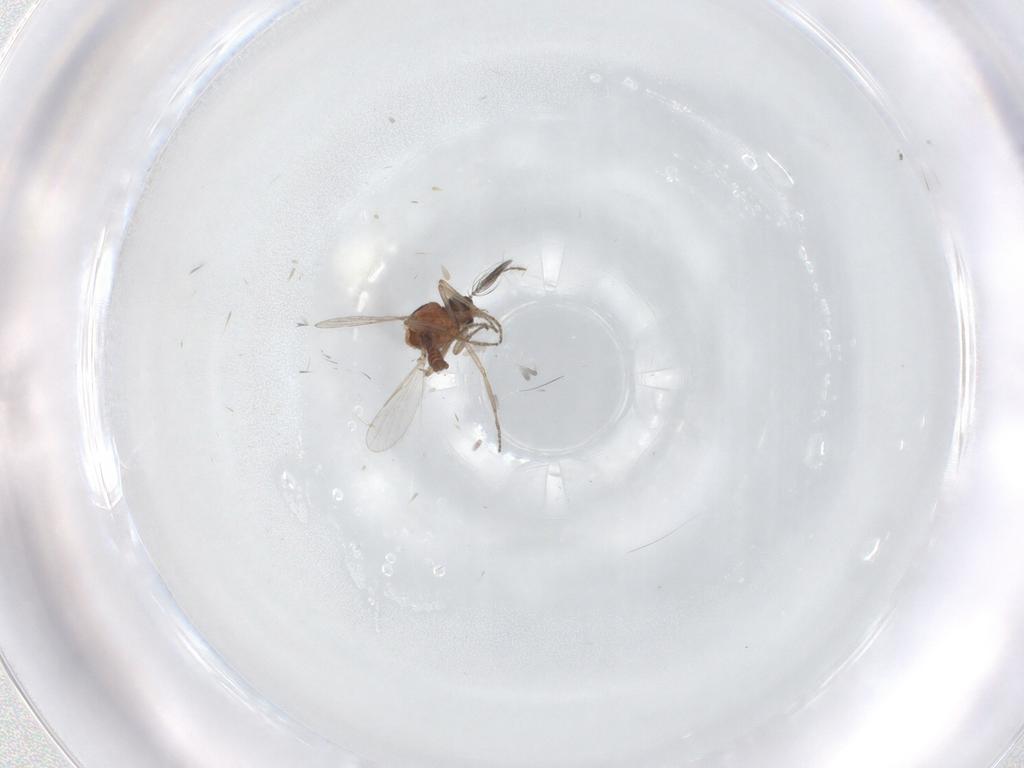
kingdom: Animalia
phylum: Arthropoda
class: Insecta
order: Diptera
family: Ceratopogonidae
